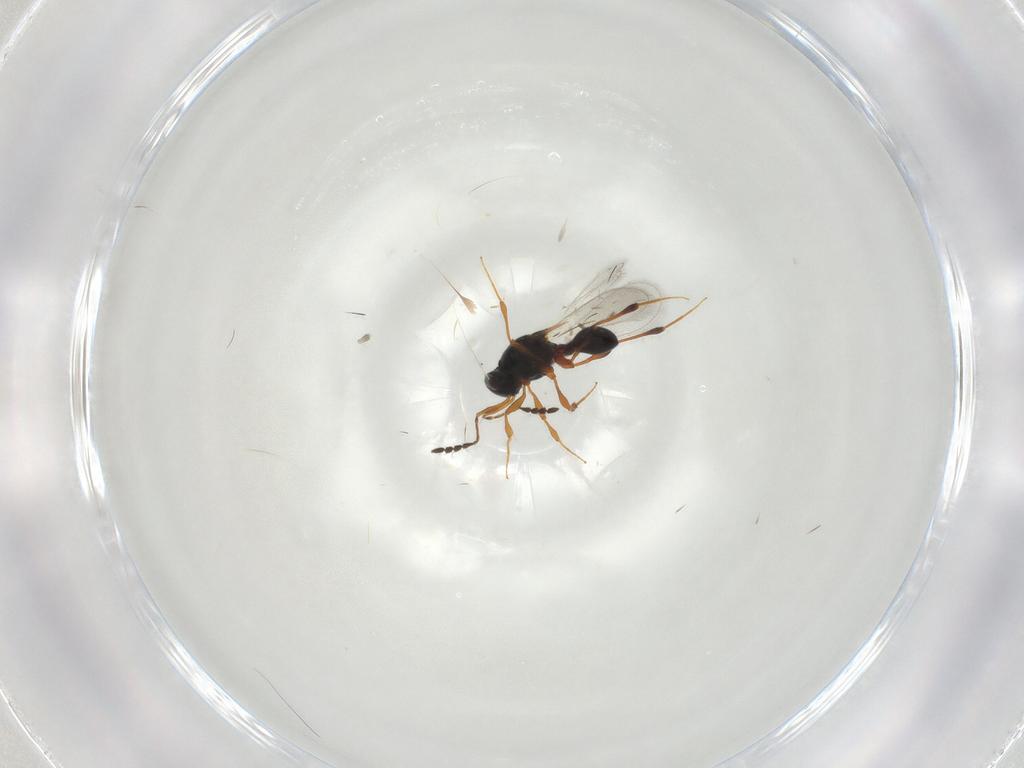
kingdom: Animalia
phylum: Arthropoda
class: Insecta
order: Hymenoptera
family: Platygastridae
